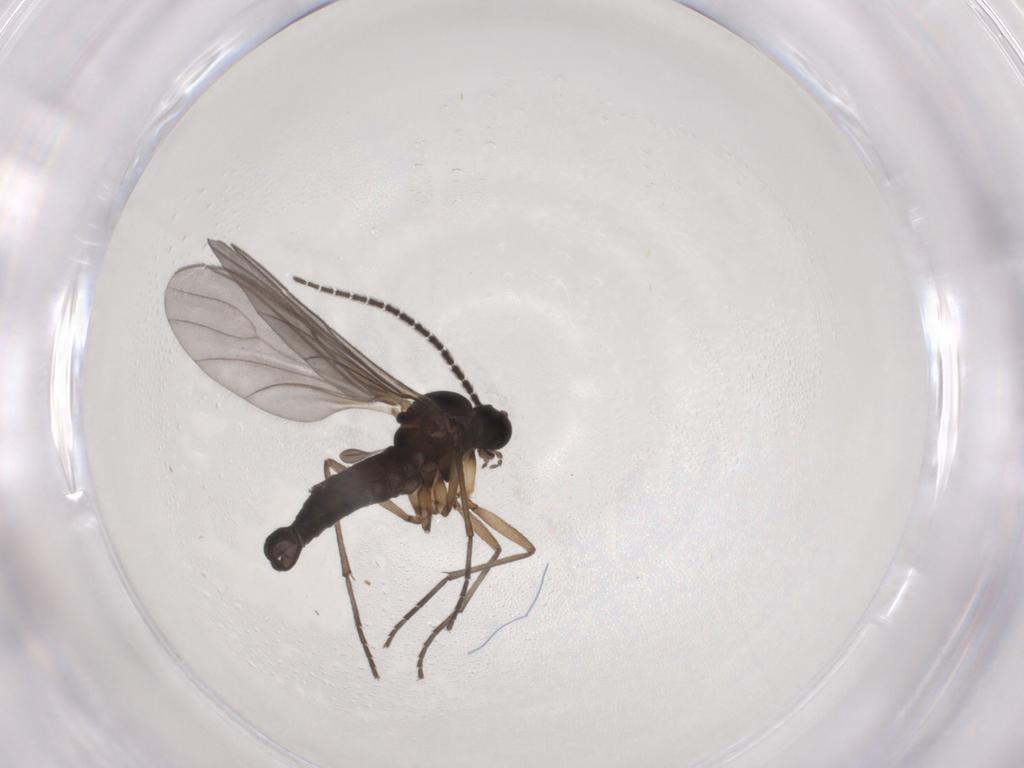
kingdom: Animalia
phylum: Arthropoda
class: Insecta
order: Diptera
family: Sciaridae
